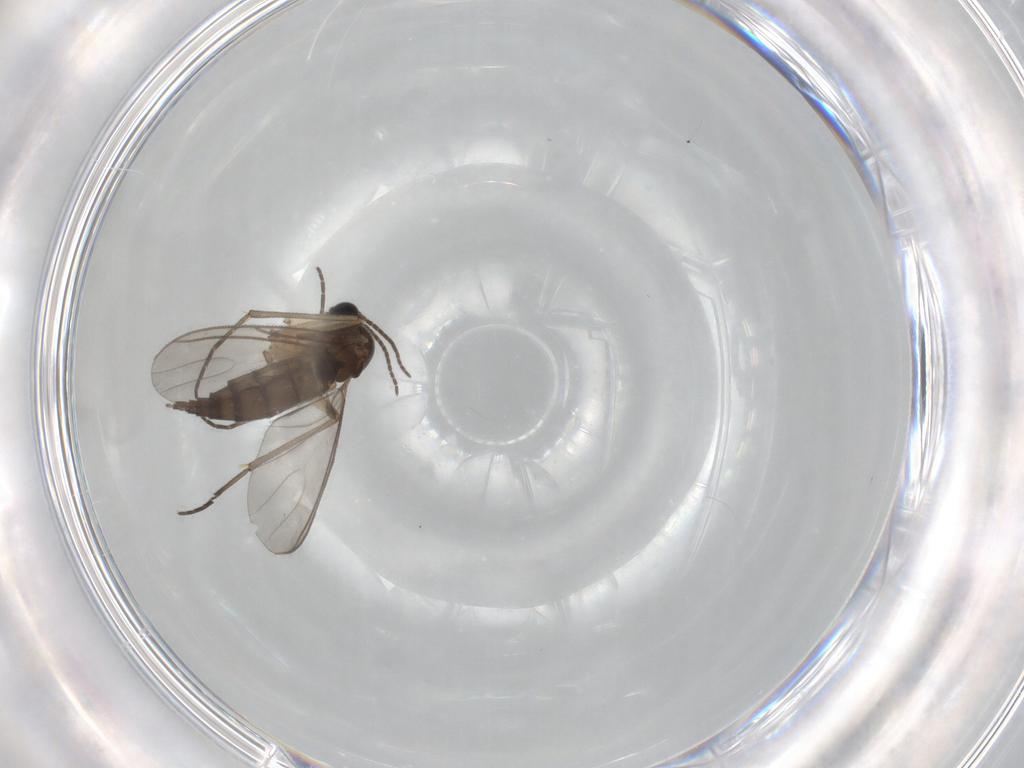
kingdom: Animalia
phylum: Arthropoda
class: Insecta
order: Diptera
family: Sciaridae
